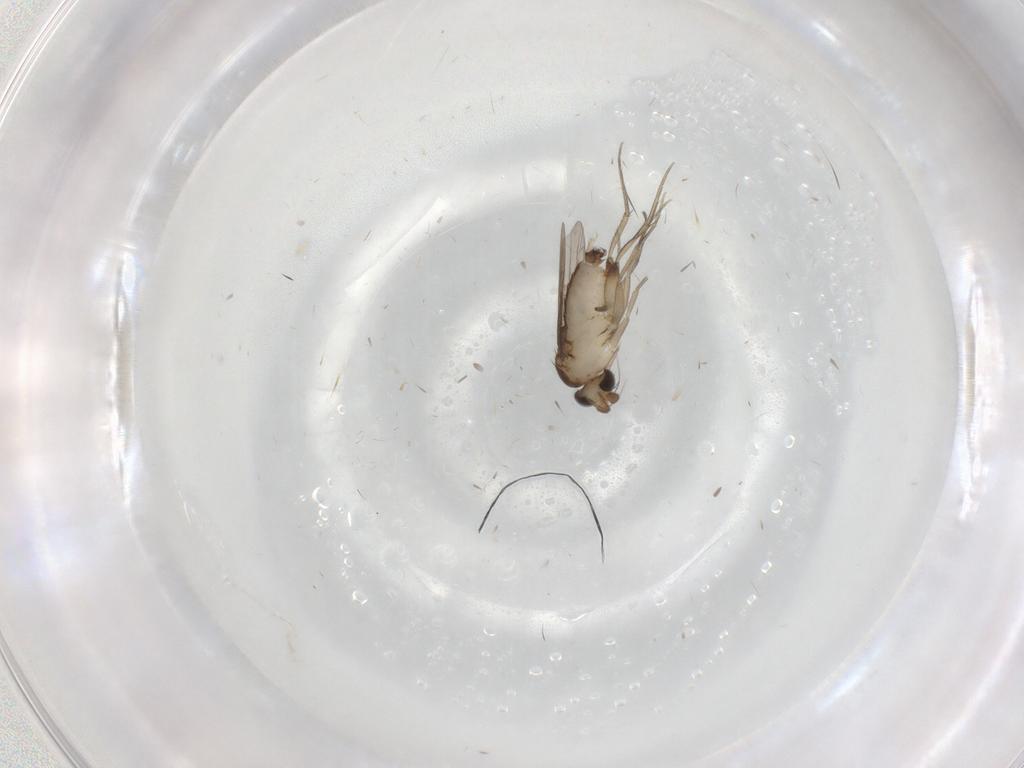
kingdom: Animalia
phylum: Arthropoda
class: Insecta
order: Diptera
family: Phoridae
